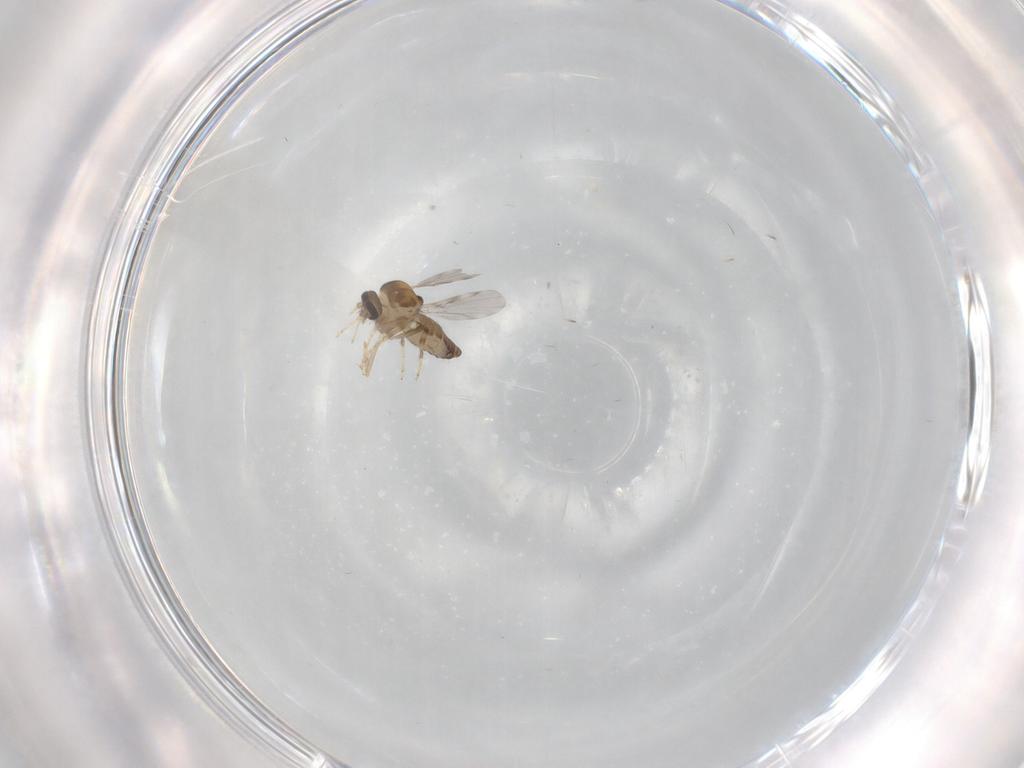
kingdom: Animalia
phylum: Arthropoda
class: Insecta
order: Diptera
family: Ceratopogonidae
